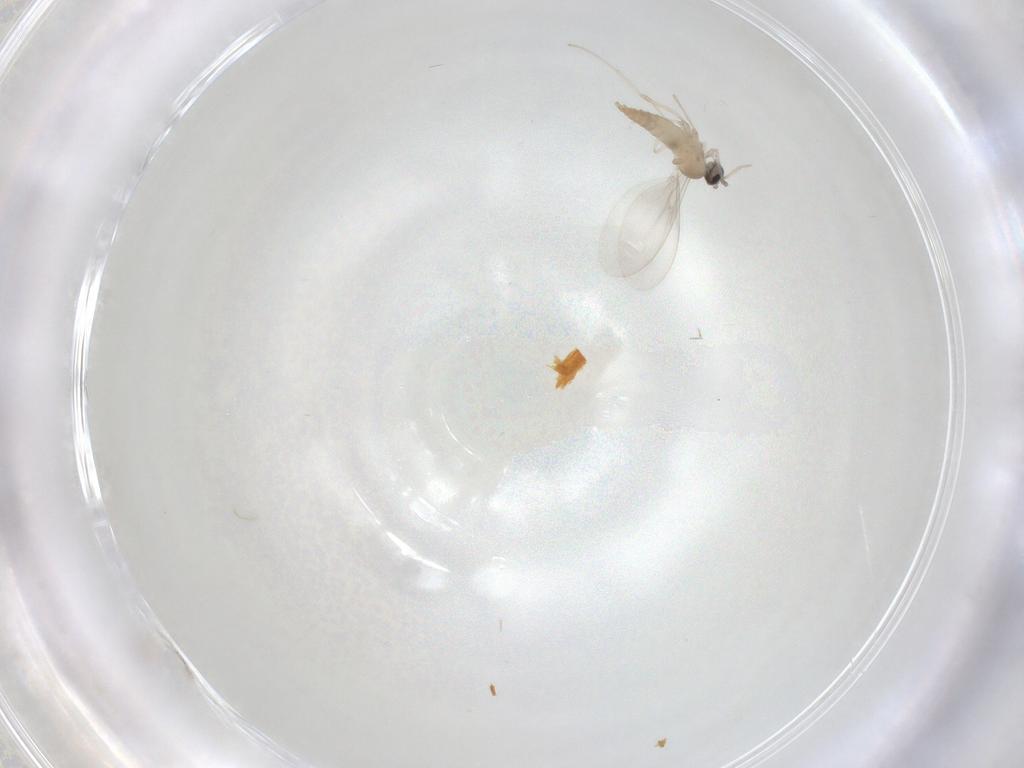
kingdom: Animalia
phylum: Arthropoda
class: Insecta
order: Diptera
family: Cecidomyiidae
